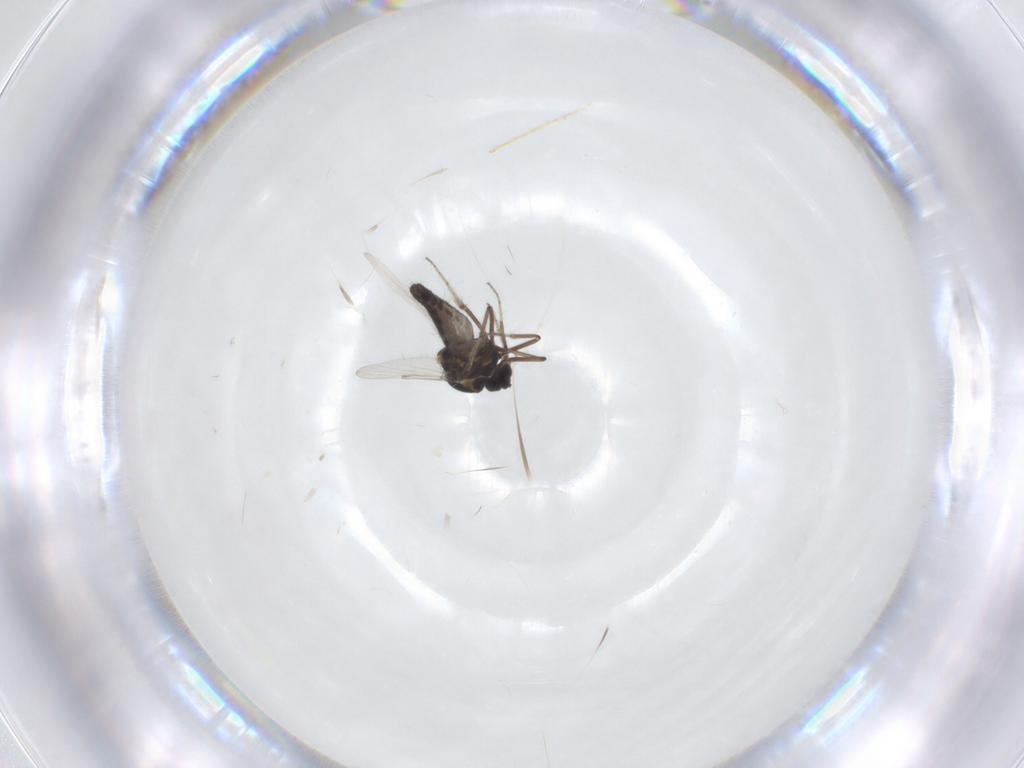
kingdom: Animalia
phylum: Arthropoda
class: Insecta
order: Diptera
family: Ceratopogonidae
